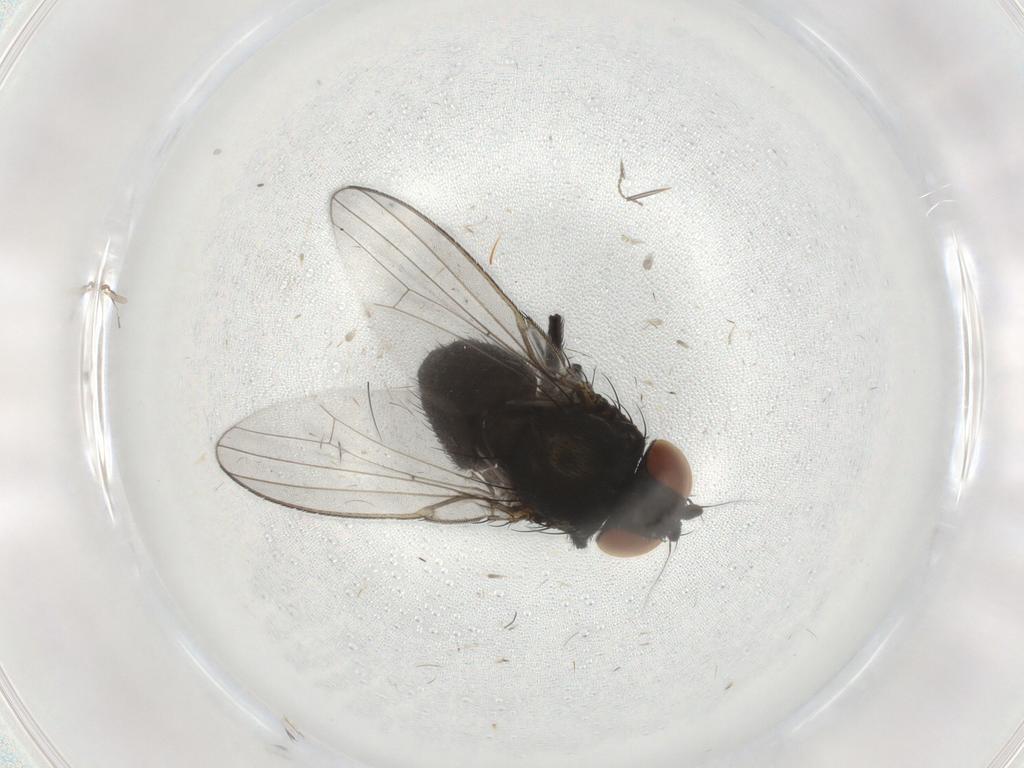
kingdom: Animalia
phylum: Arthropoda
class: Insecta
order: Diptera
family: Milichiidae
